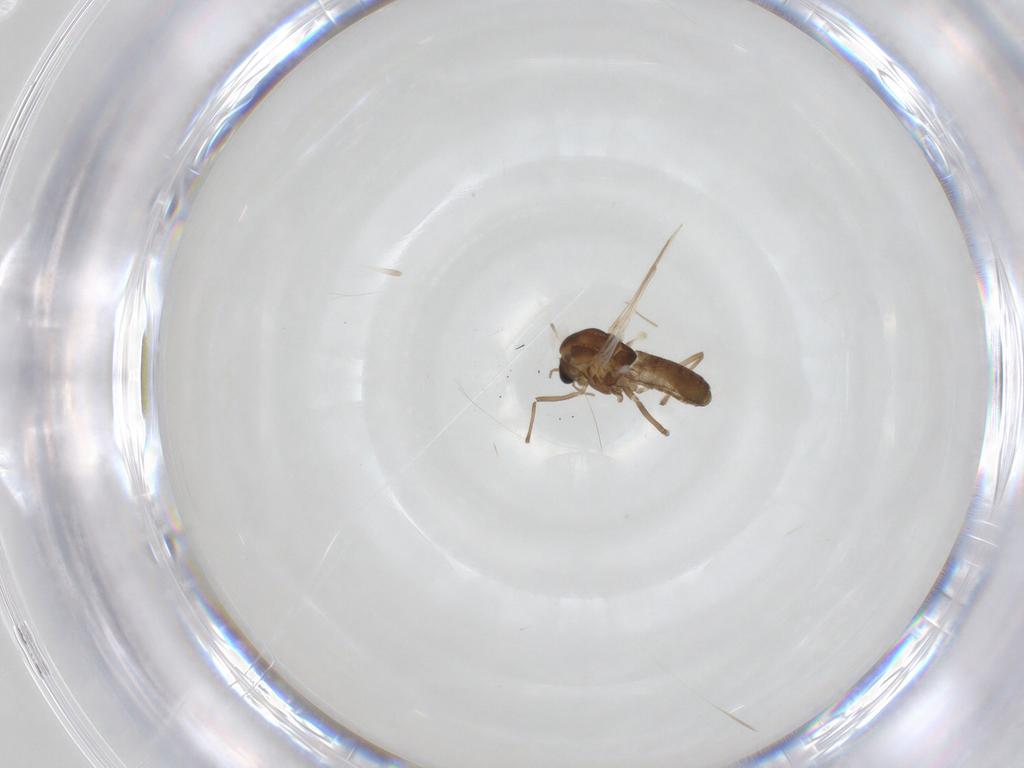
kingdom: Animalia
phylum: Arthropoda
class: Insecta
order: Diptera
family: Chironomidae
